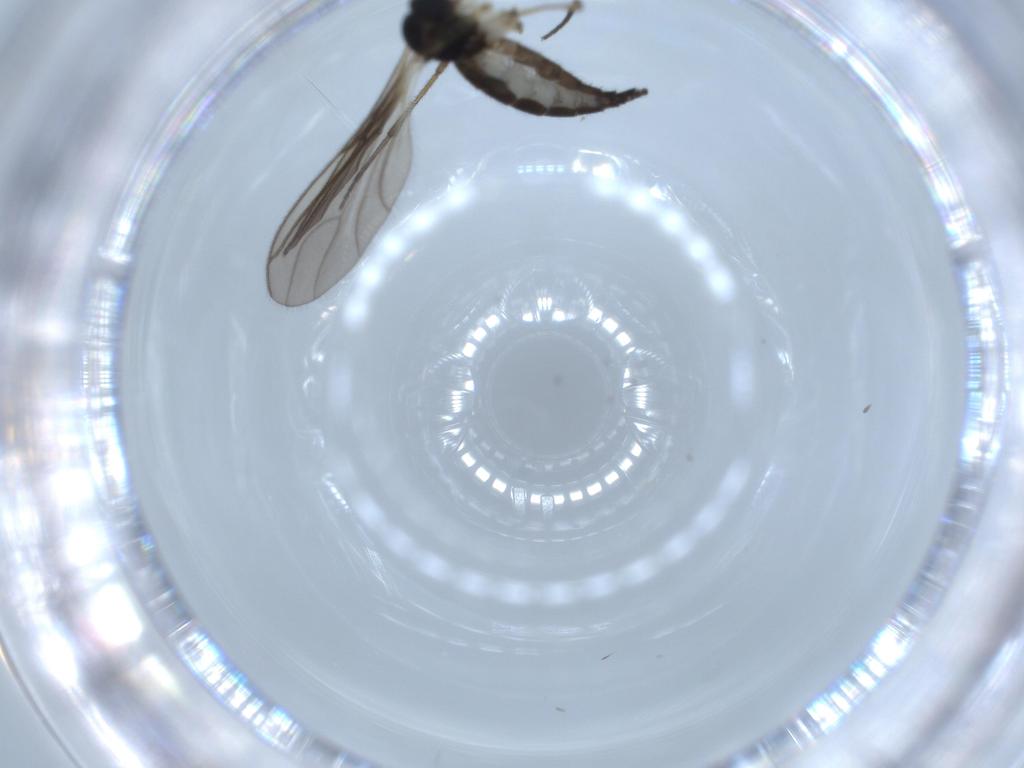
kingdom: Animalia
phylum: Arthropoda
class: Insecta
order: Diptera
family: Sciaridae
